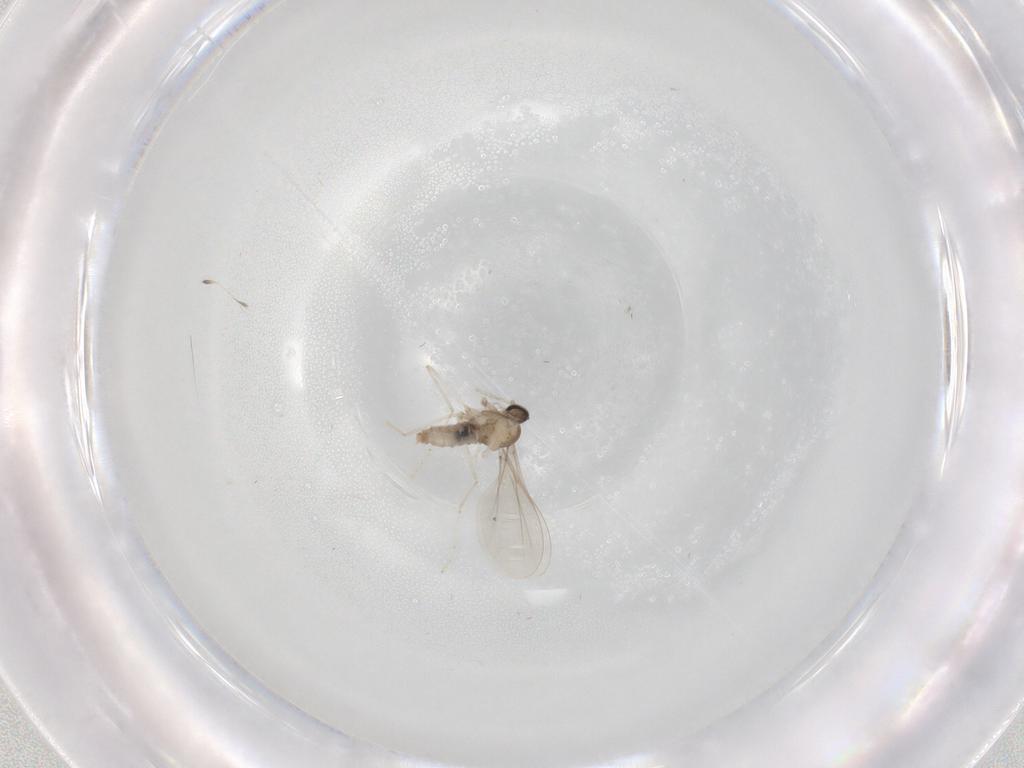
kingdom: Animalia
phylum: Arthropoda
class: Insecta
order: Diptera
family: Cecidomyiidae
